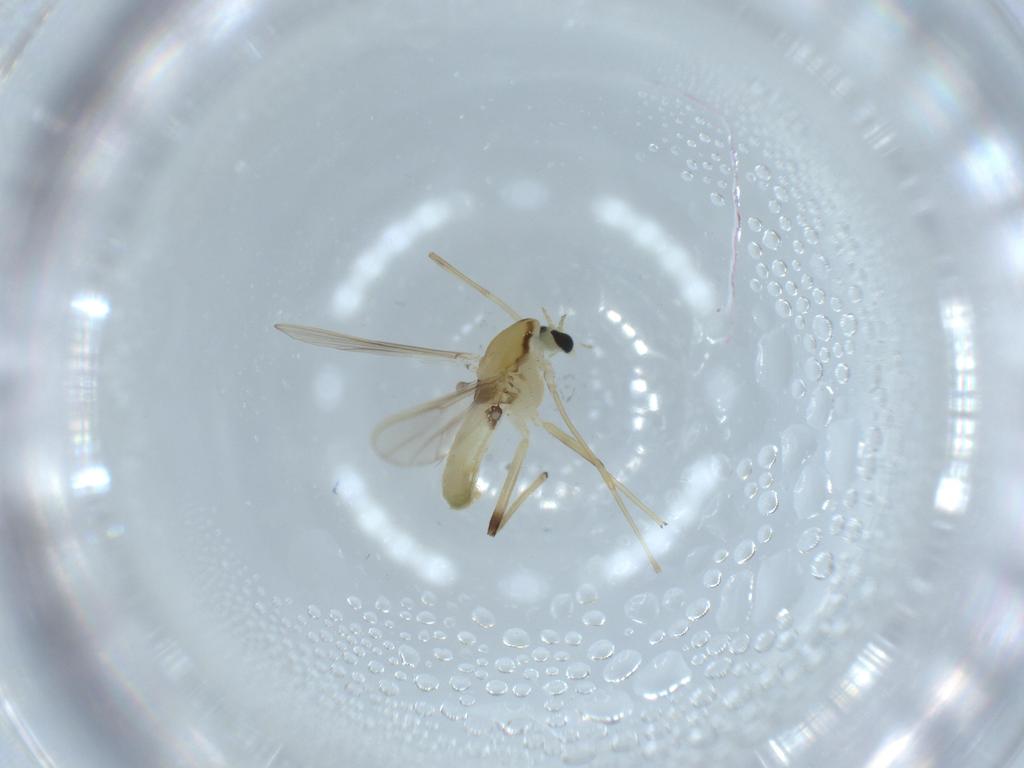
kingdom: Animalia
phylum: Arthropoda
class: Insecta
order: Diptera
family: Chironomidae
